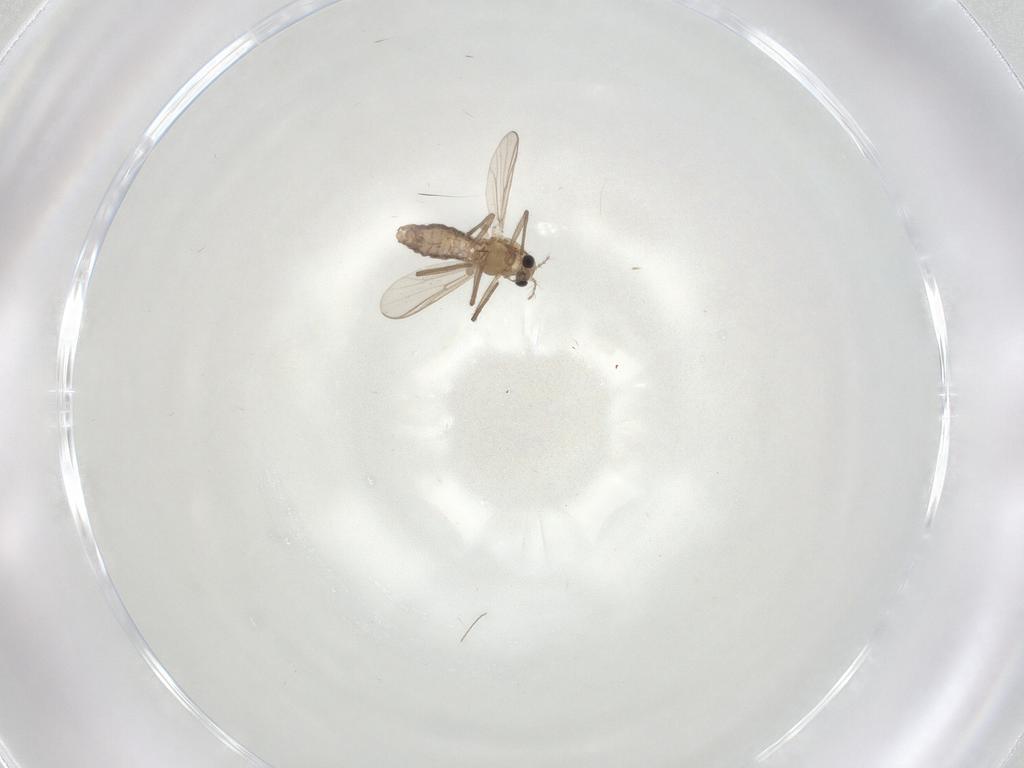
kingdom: Animalia
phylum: Arthropoda
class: Insecta
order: Diptera
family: Chironomidae
